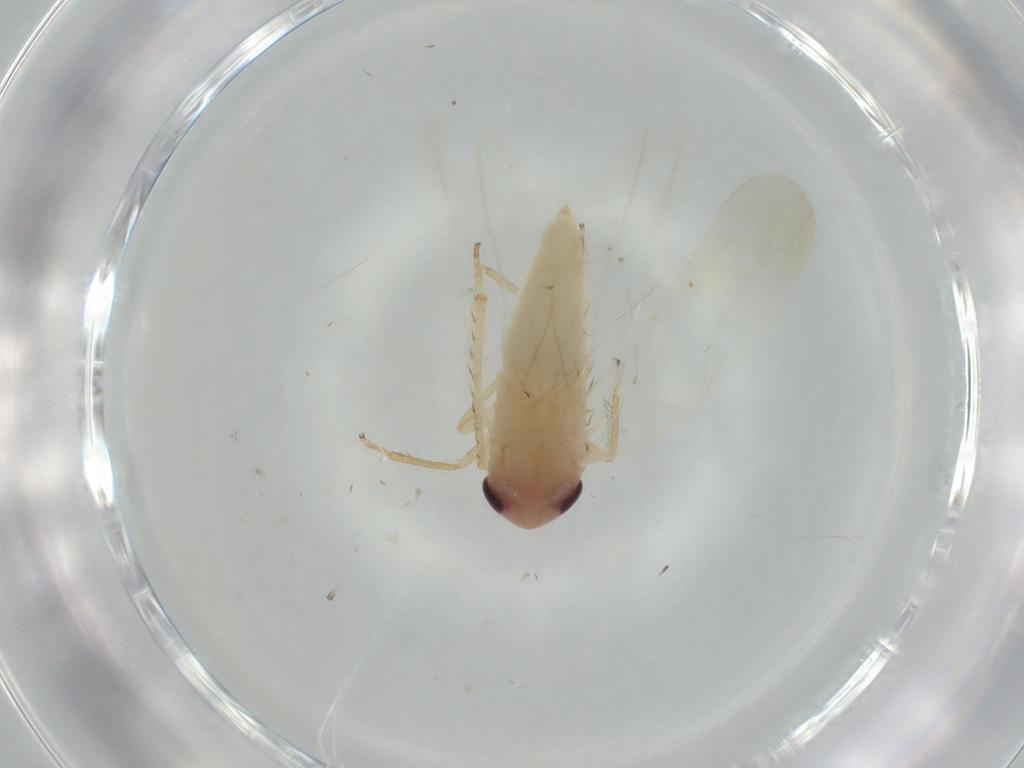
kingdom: Animalia
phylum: Arthropoda
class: Insecta
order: Hemiptera
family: Cicadellidae
